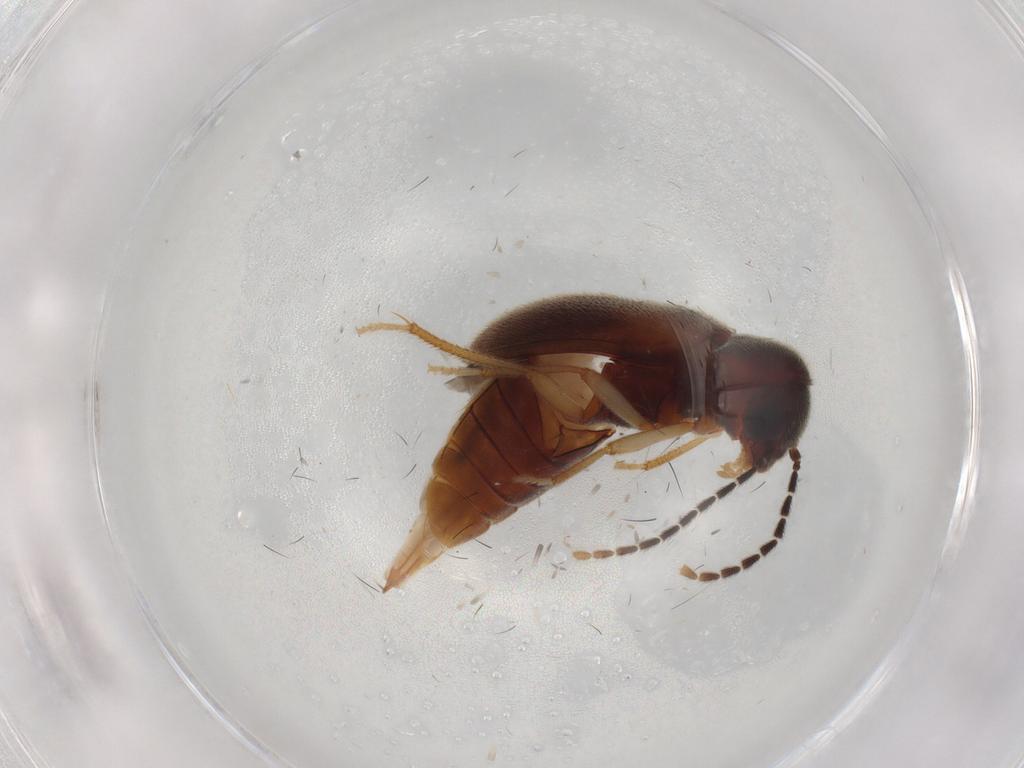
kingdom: Animalia
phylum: Arthropoda
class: Insecta
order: Coleoptera
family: Ptilodactylidae
